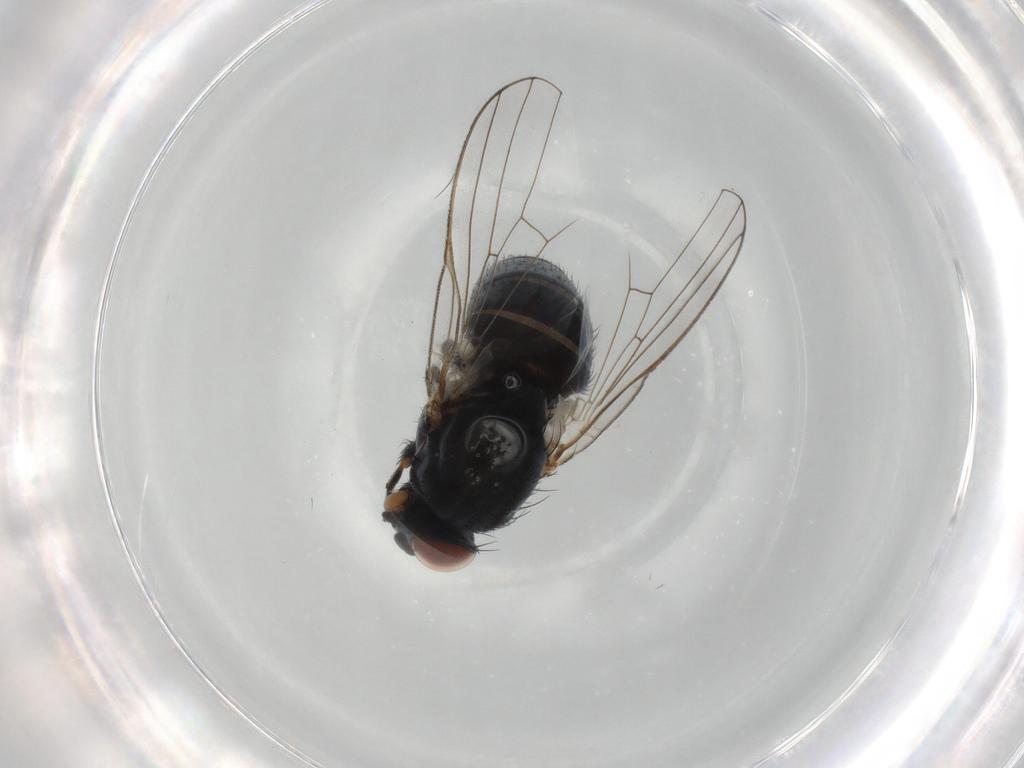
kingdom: Animalia
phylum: Arthropoda
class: Insecta
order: Diptera
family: Chamaemyiidae
